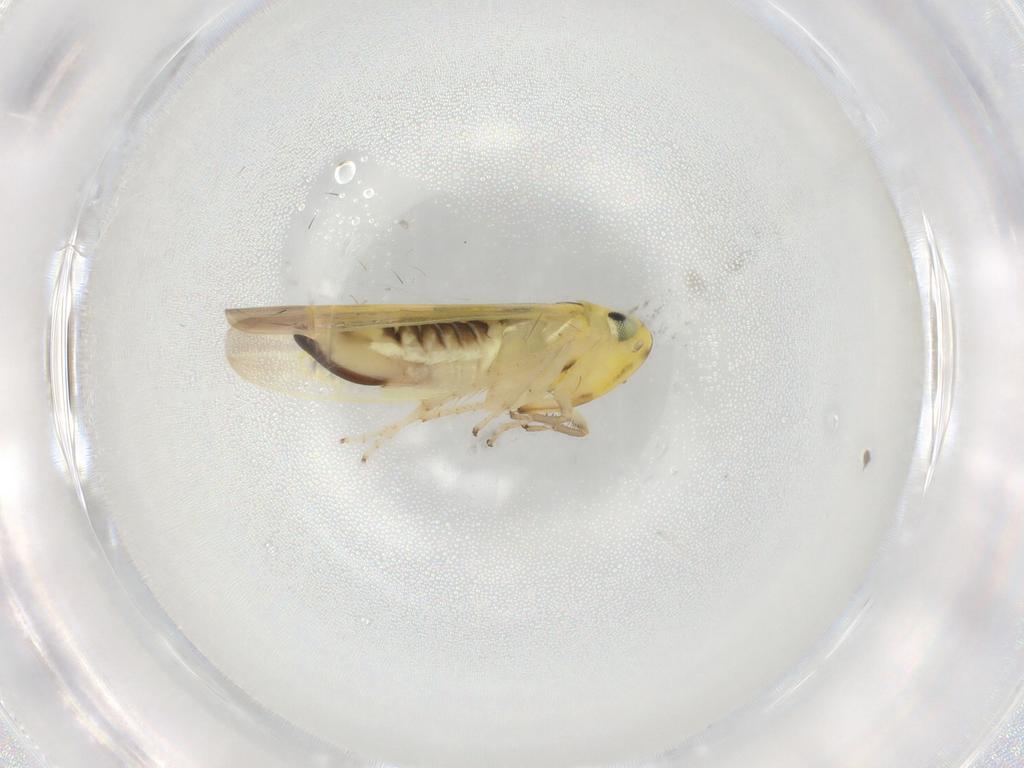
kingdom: Animalia
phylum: Arthropoda
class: Insecta
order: Hemiptera
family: Cicadellidae
